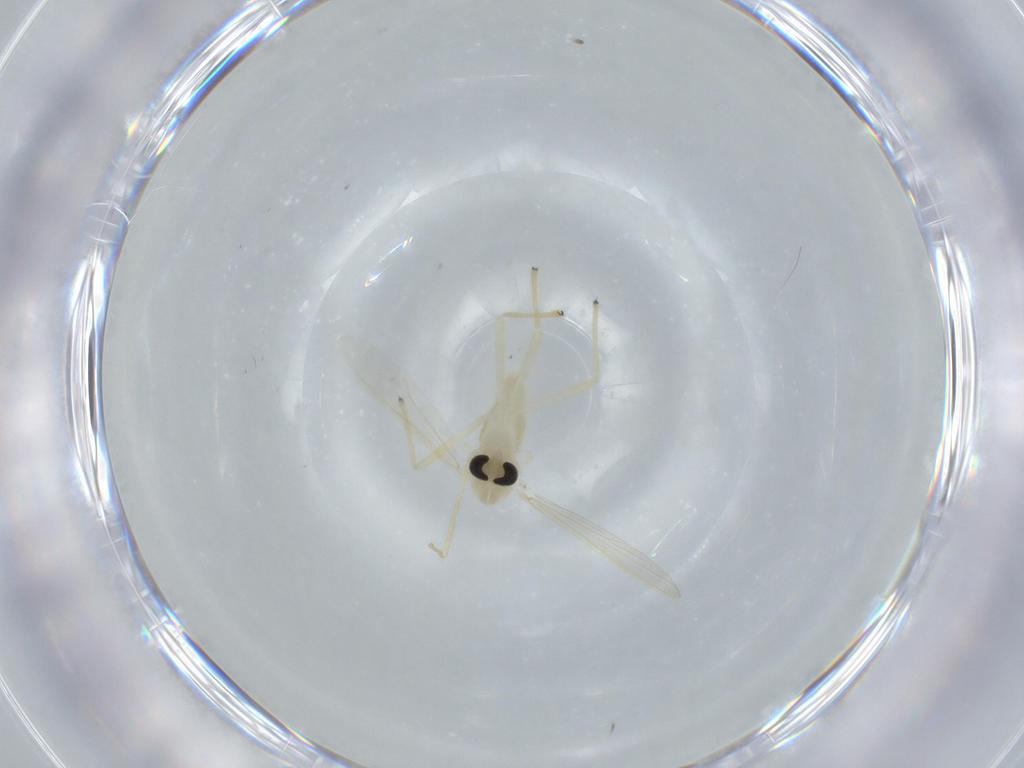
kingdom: Animalia
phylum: Arthropoda
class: Insecta
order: Diptera
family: Chironomidae
